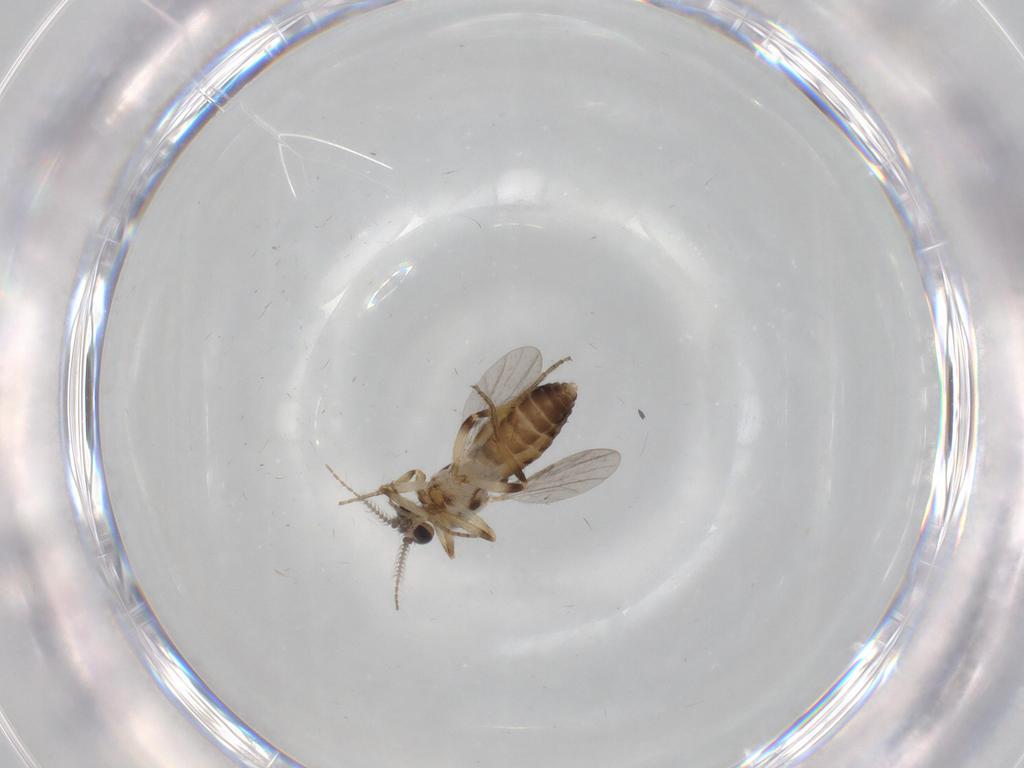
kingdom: Animalia
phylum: Arthropoda
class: Insecta
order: Diptera
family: Ceratopogonidae
